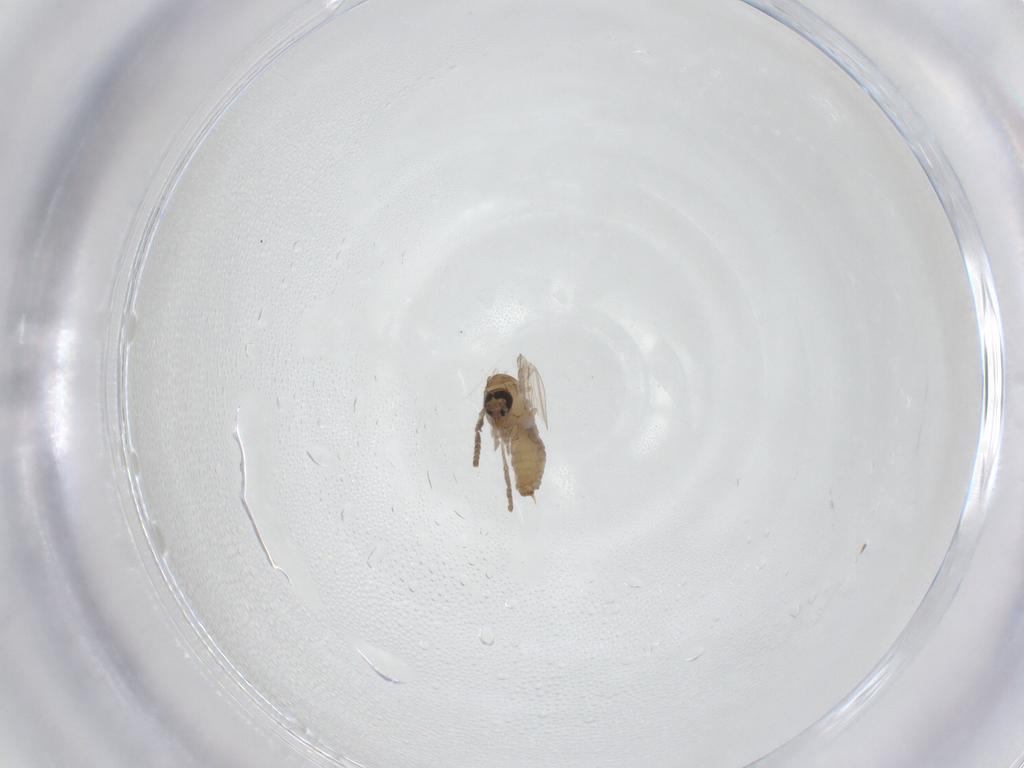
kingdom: Animalia
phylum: Arthropoda
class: Insecta
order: Diptera
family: Psychodidae
